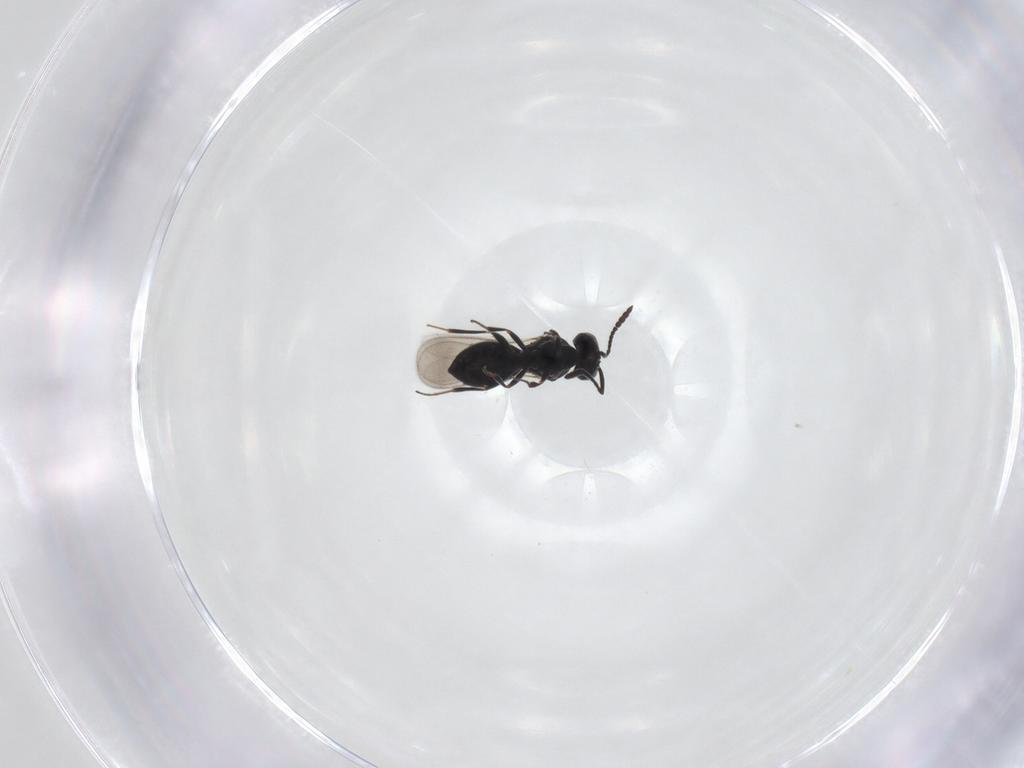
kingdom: Animalia
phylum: Arthropoda
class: Insecta
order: Hymenoptera
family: Scelionidae
